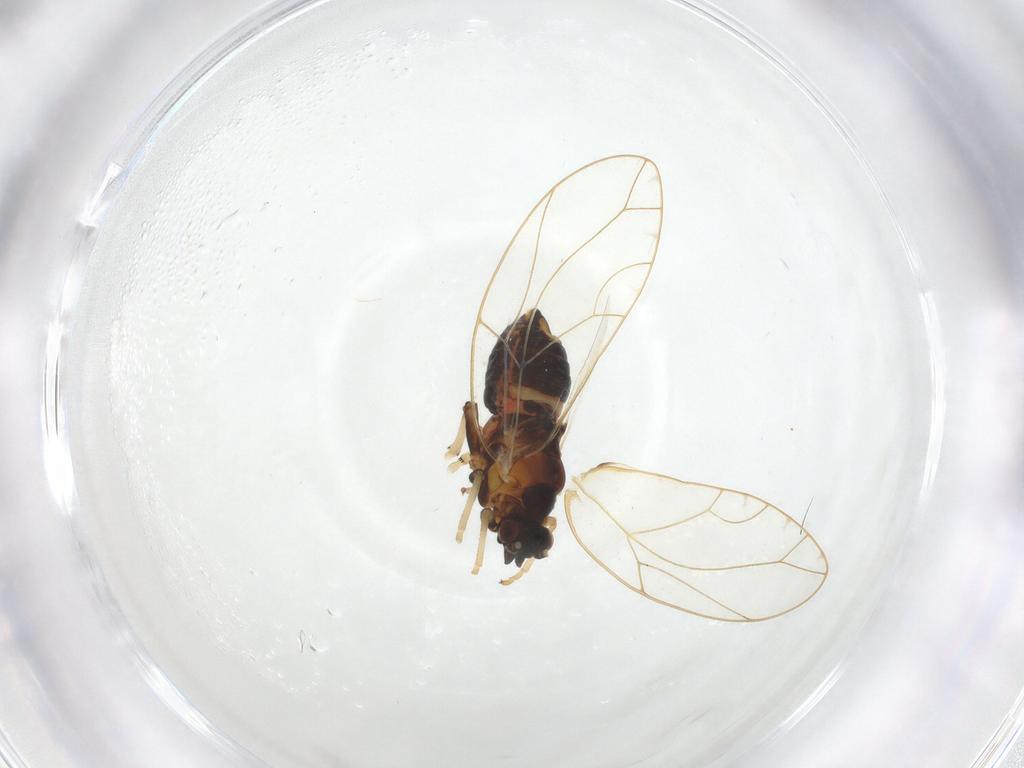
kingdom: Animalia
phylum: Arthropoda
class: Insecta
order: Hemiptera
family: Triozidae
